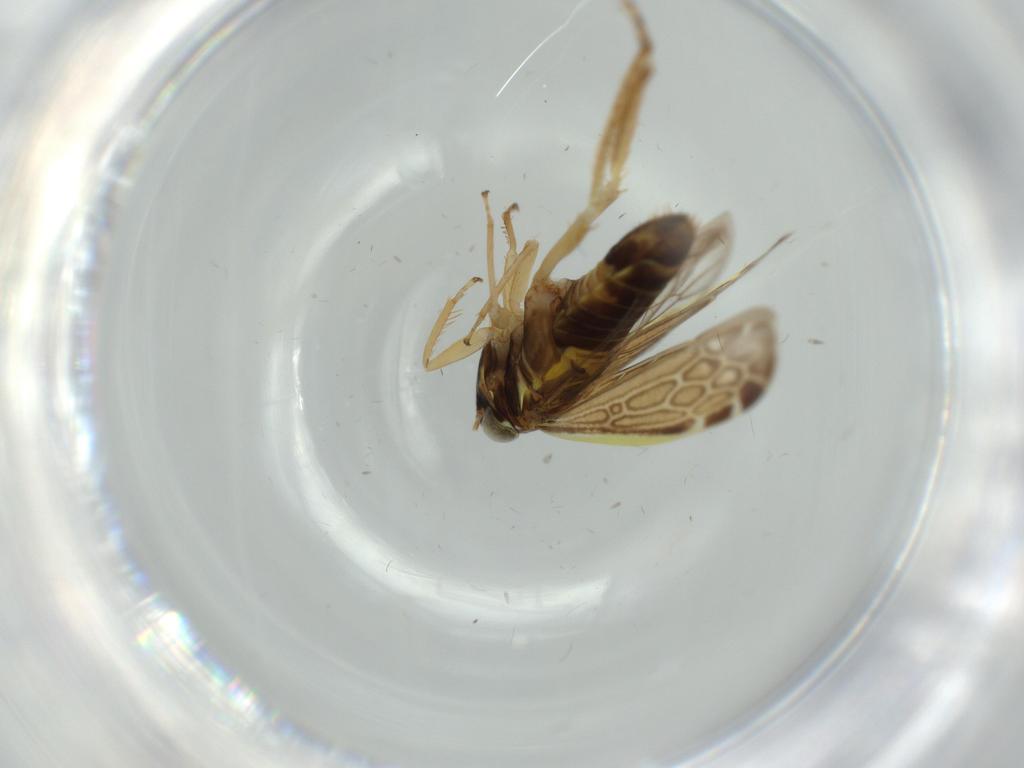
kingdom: Animalia
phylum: Arthropoda
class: Insecta
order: Hemiptera
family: Cicadellidae
